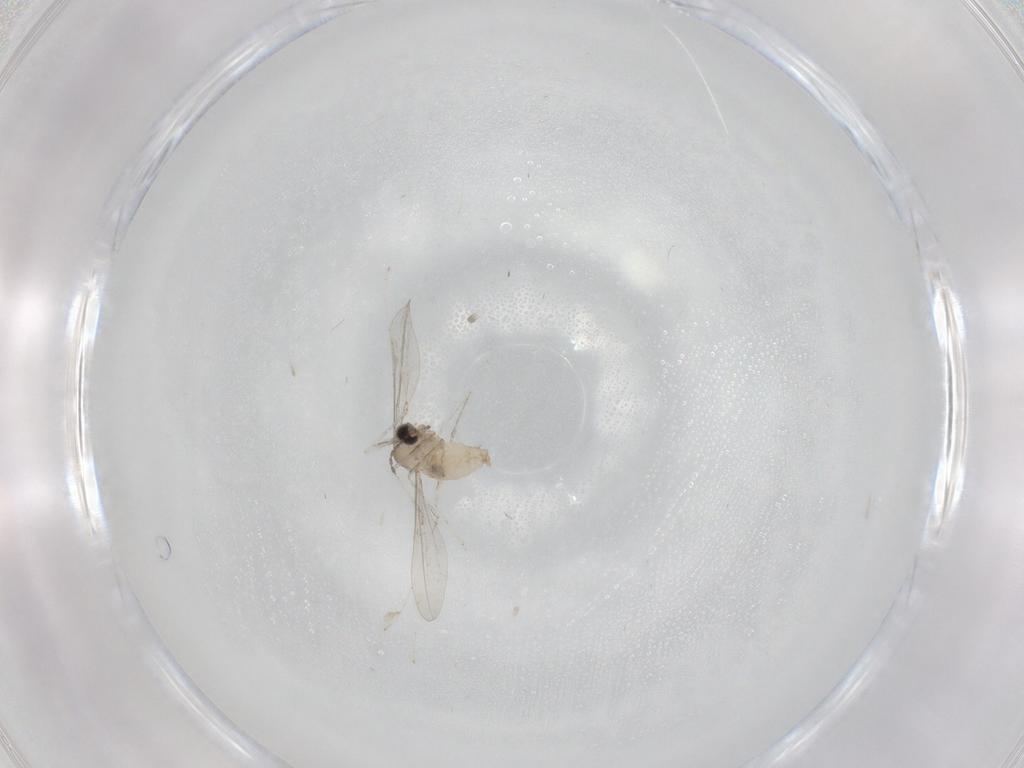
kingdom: Animalia
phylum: Arthropoda
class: Insecta
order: Diptera
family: Cecidomyiidae
